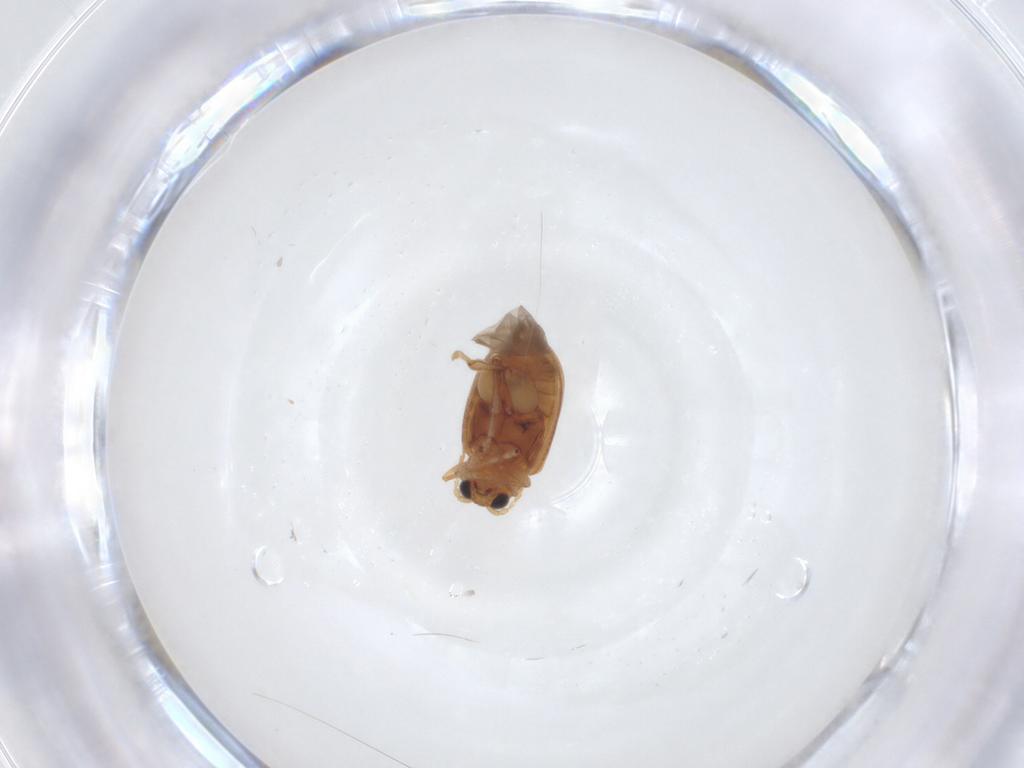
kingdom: Animalia
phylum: Arthropoda
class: Insecta
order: Coleoptera
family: Chrysomelidae
